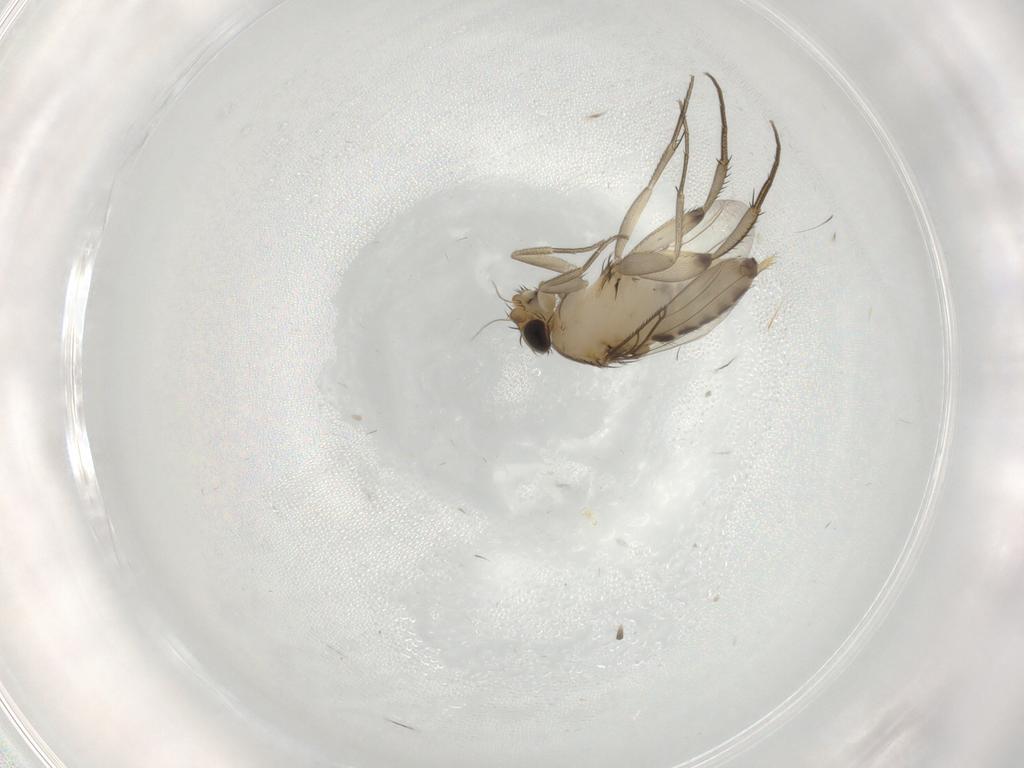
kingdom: Animalia
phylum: Arthropoda
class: Insecta
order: Diptera
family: Phoridae
